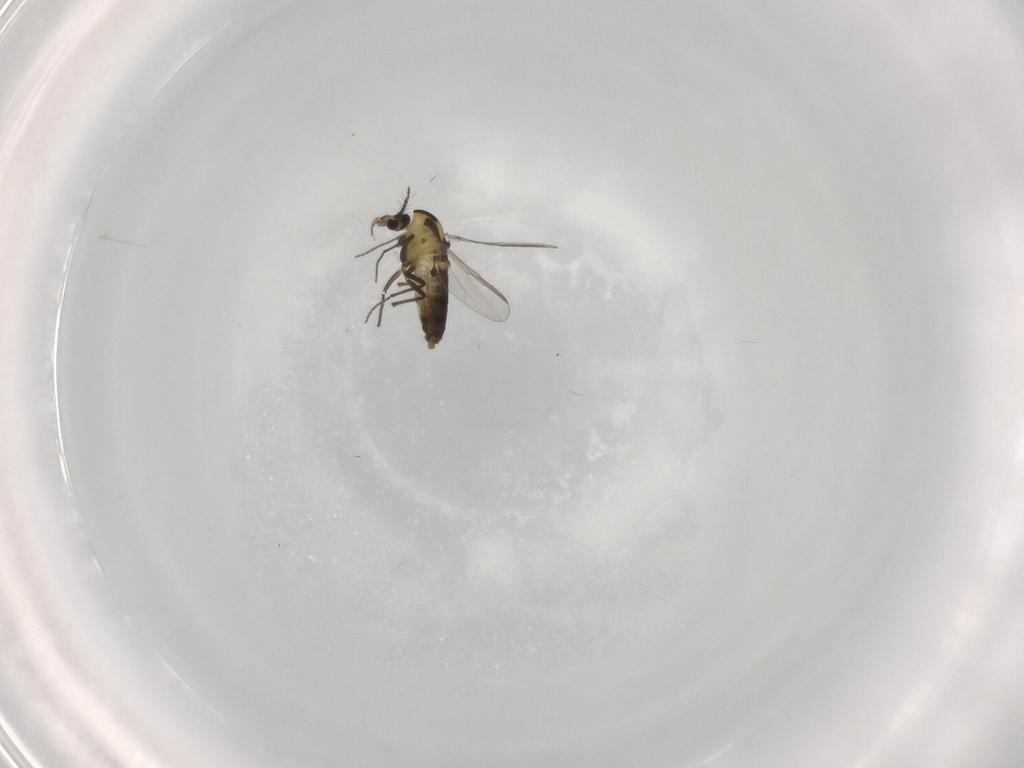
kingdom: Animalia
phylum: Arthropoda
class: Insecta
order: Diptera
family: Chironomidae
